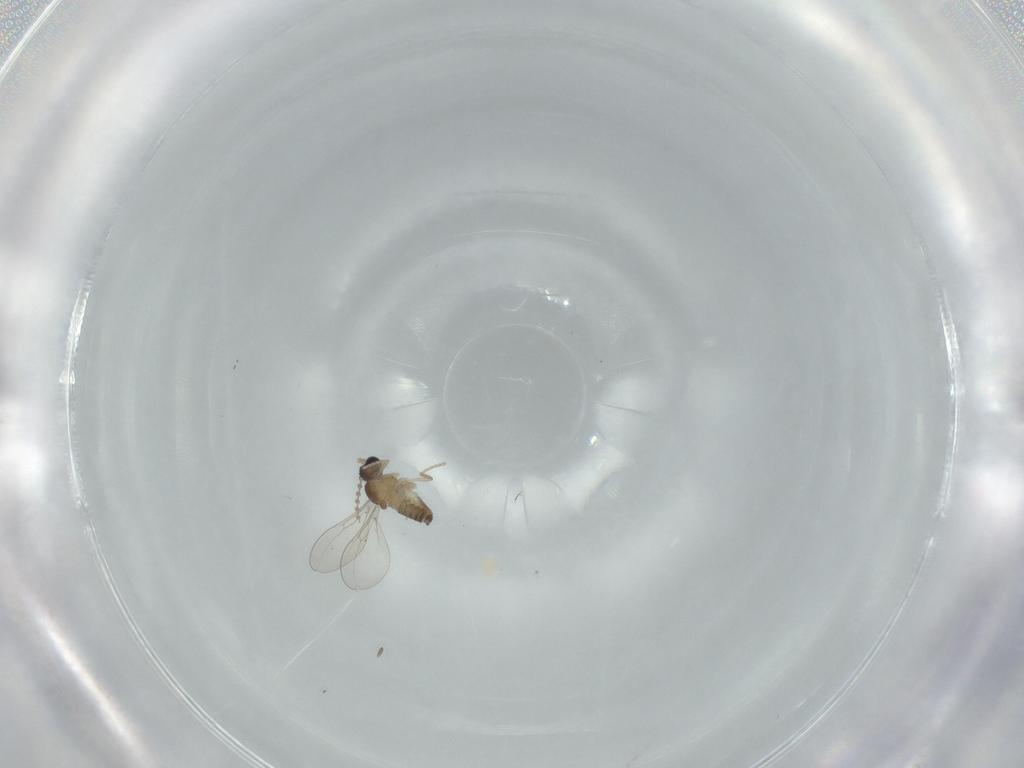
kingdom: Animalia
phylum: Arthropoda
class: Insecta
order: Diptera
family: Cecidomyiidae
